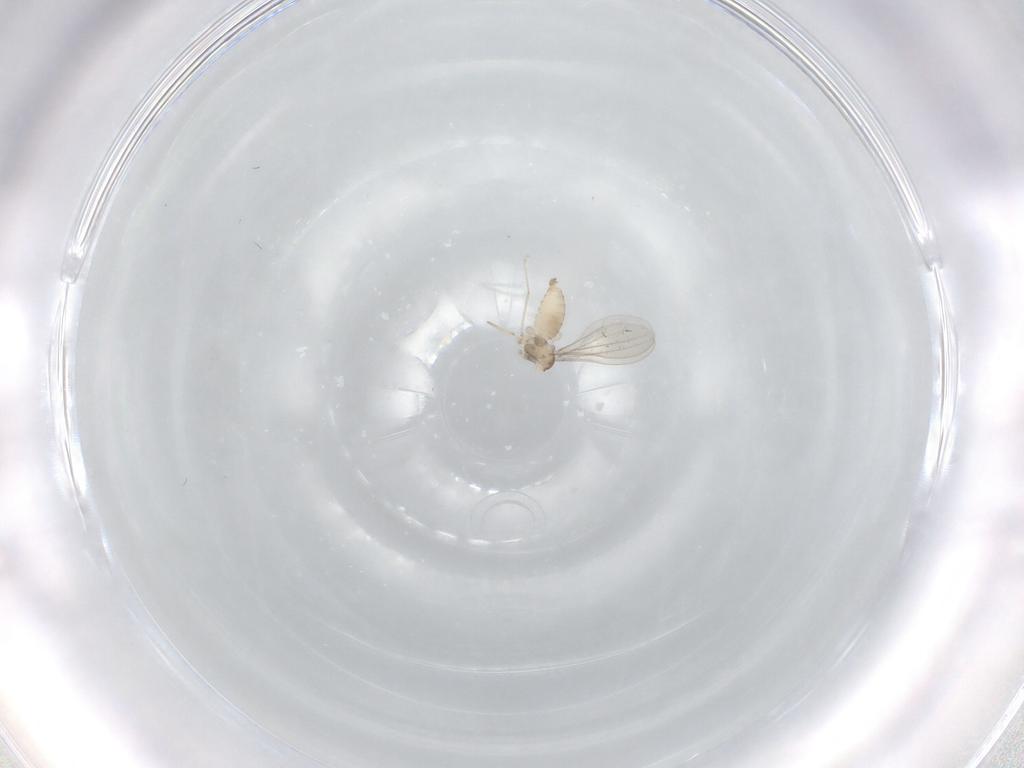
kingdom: Animalia
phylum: Arthropoda
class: Insecta
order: Diptera
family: Cecidomyiidae
